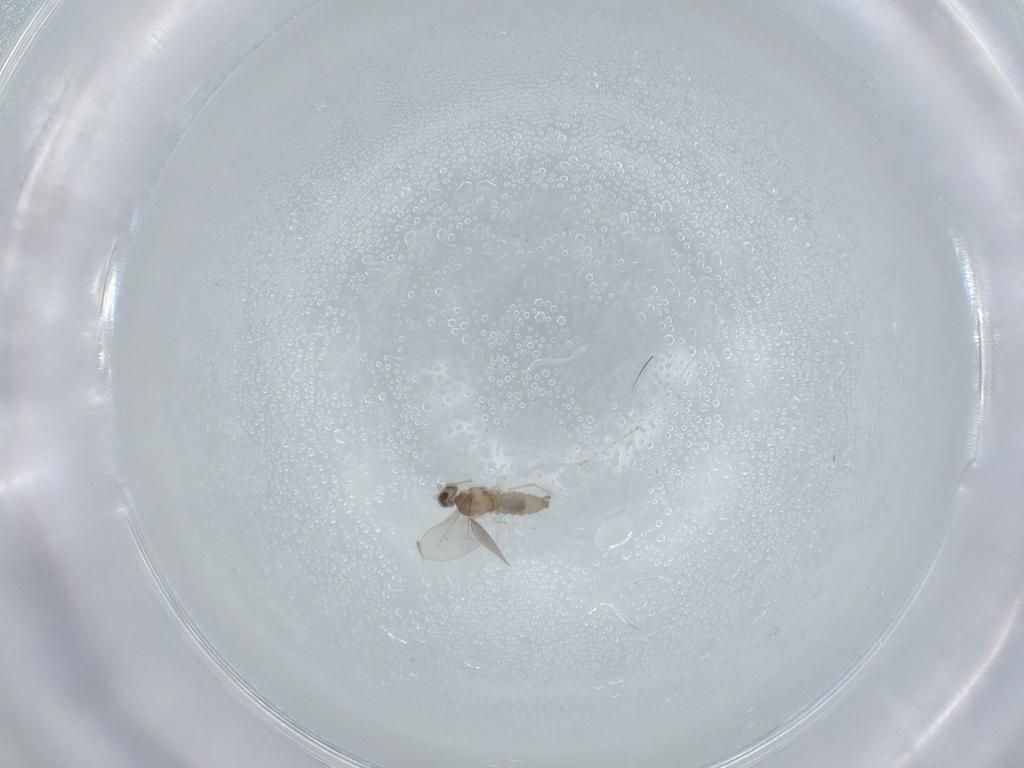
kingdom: Animalia
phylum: Arthropoda
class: Insecta
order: Diptera
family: Cecidomyiidae
